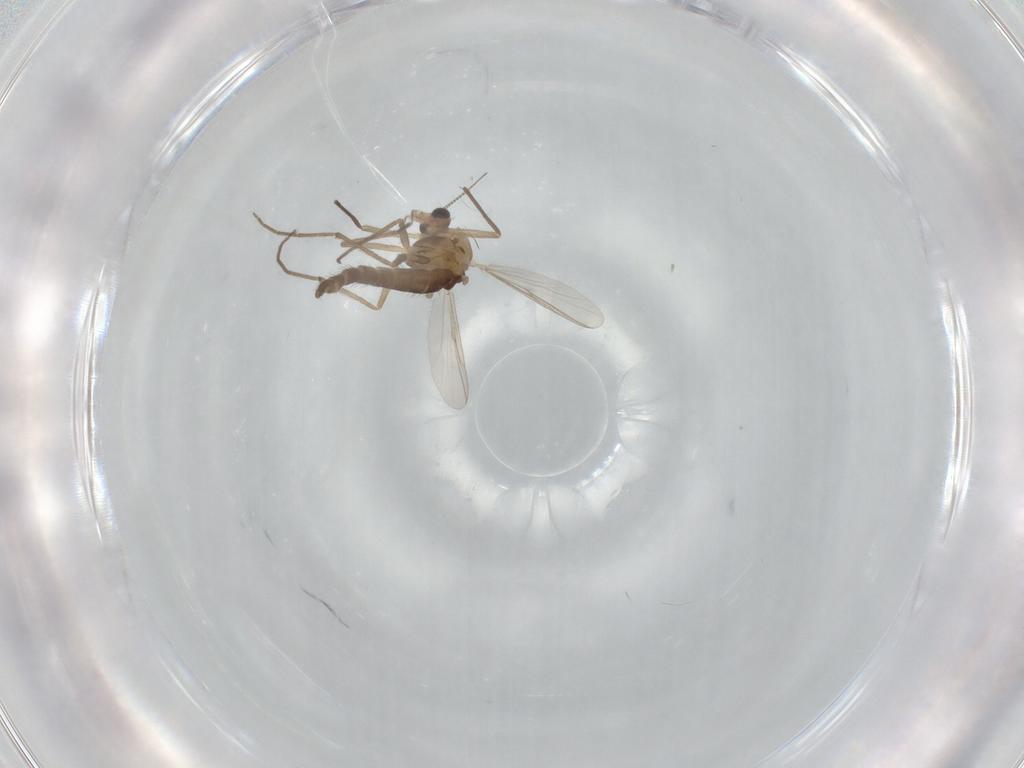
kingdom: Animalia
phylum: Arthropoda
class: Insecta
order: Diptera
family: Chironomidae
